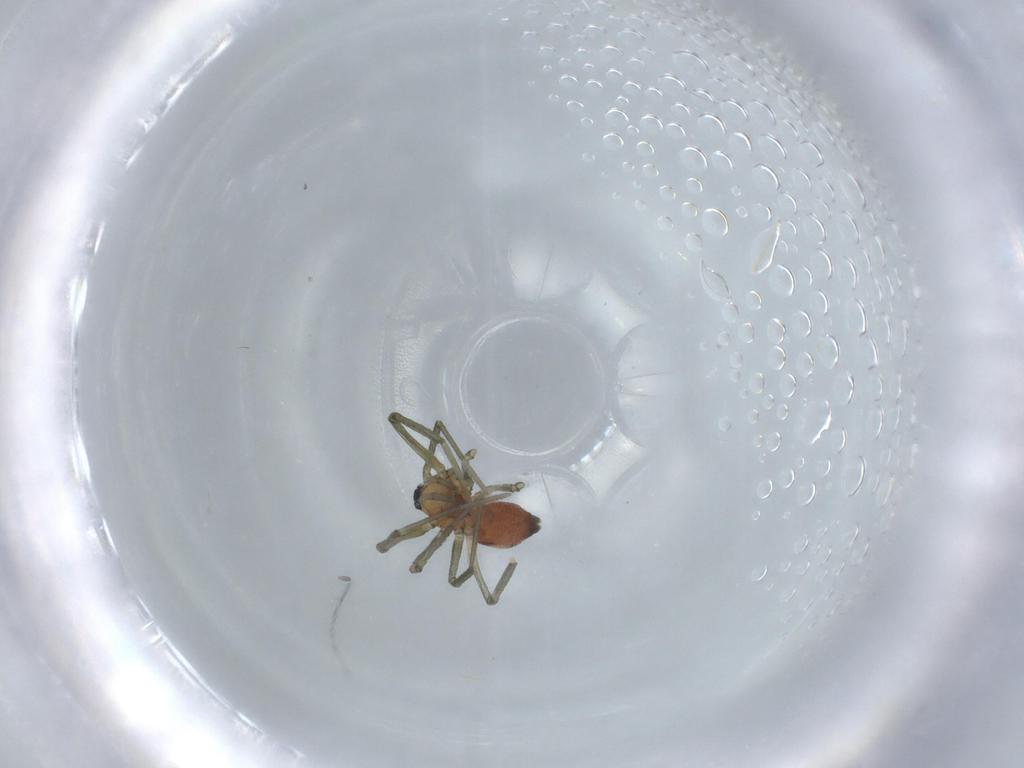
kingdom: Animalia
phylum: Arthropoda
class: Arachnida
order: Araneae
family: Linyphiidae
